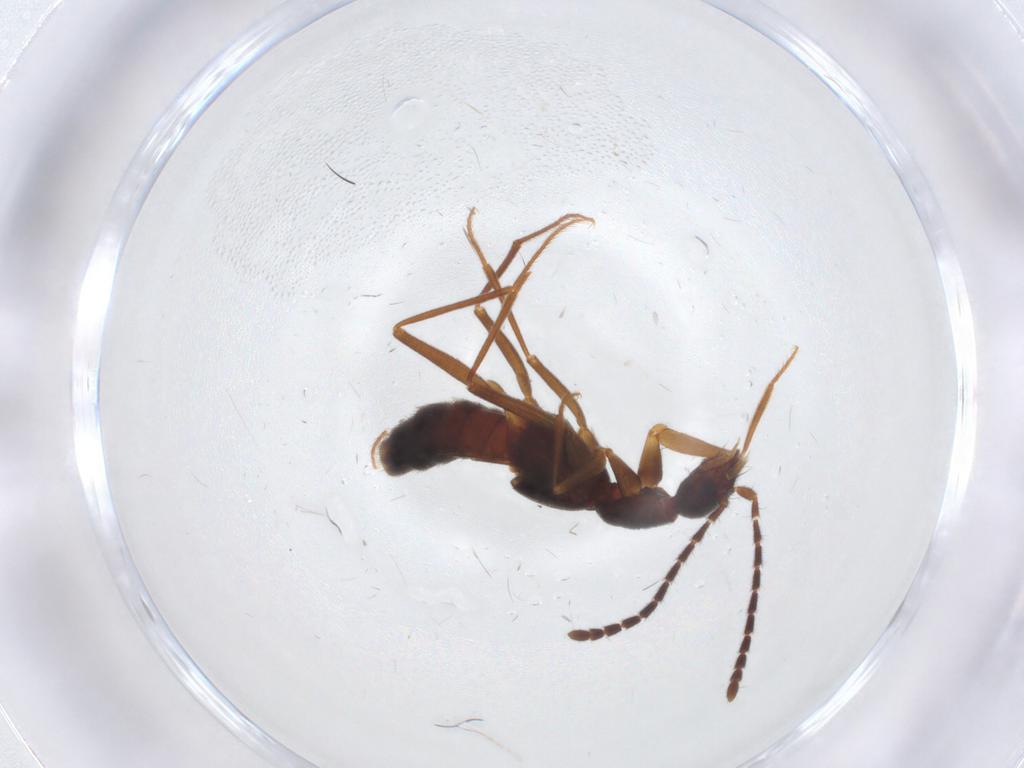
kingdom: Animalia
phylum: Arthropoda
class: Insecta
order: Coleoptera
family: Staphylinidae
